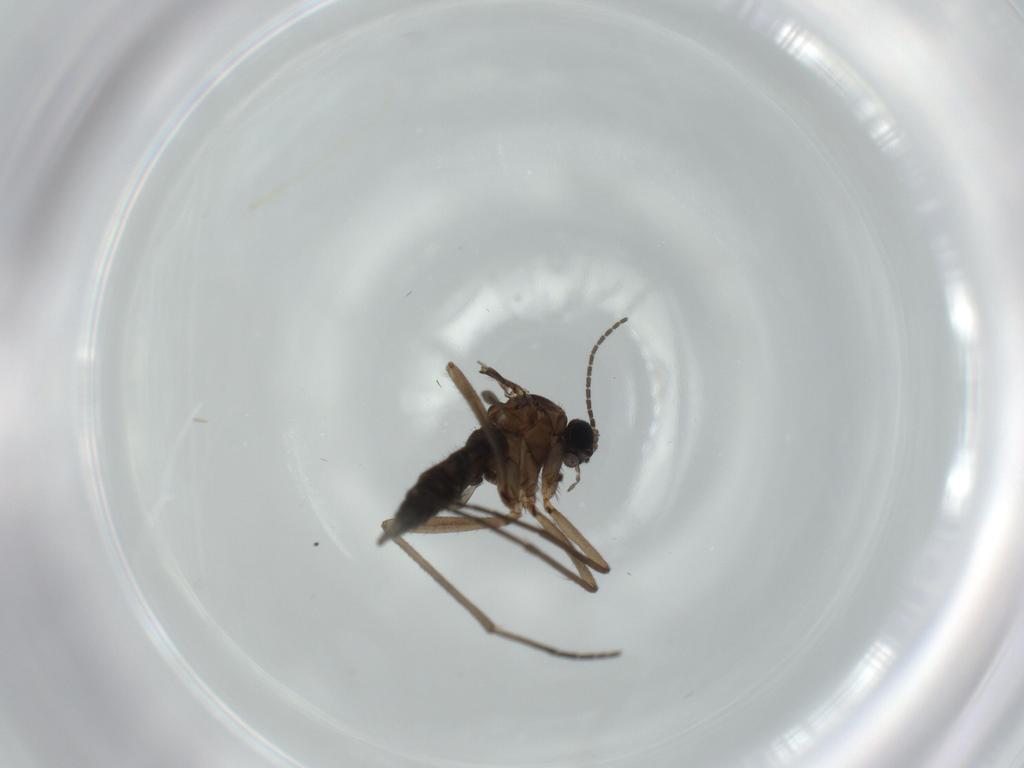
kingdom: Animalia
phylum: Arthropoda
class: Insecta
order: Diptera
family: Sciaridae
